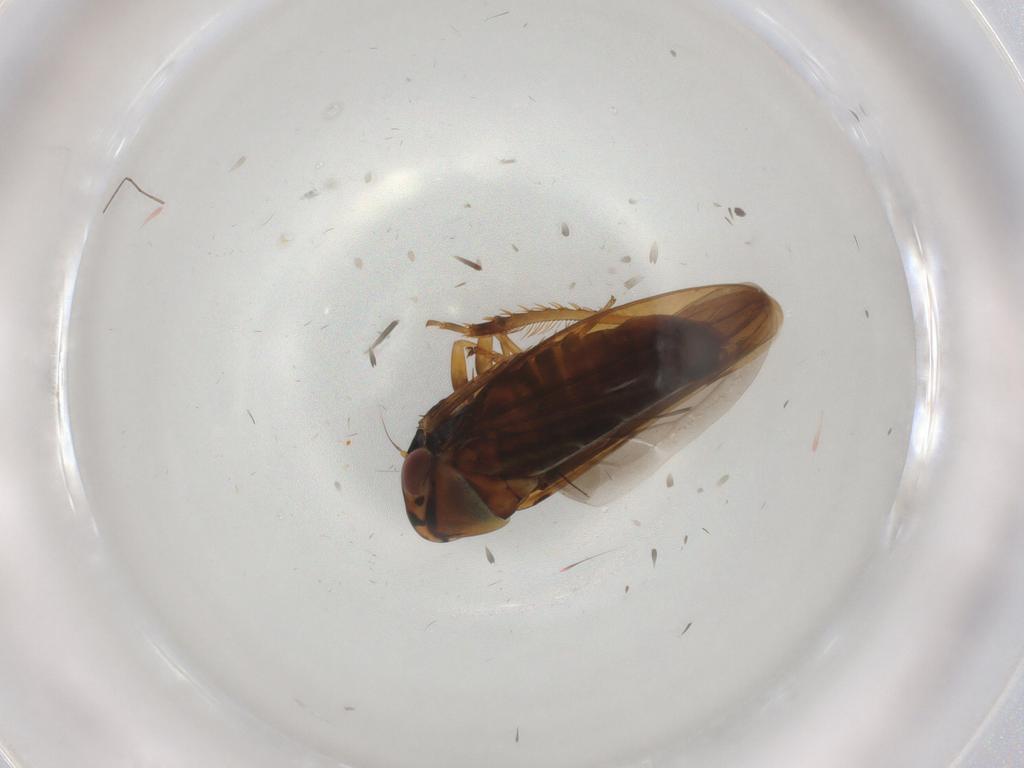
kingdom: Animalia
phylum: Arthropoda
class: Insecta
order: Hemiptera
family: Cicadellidae
